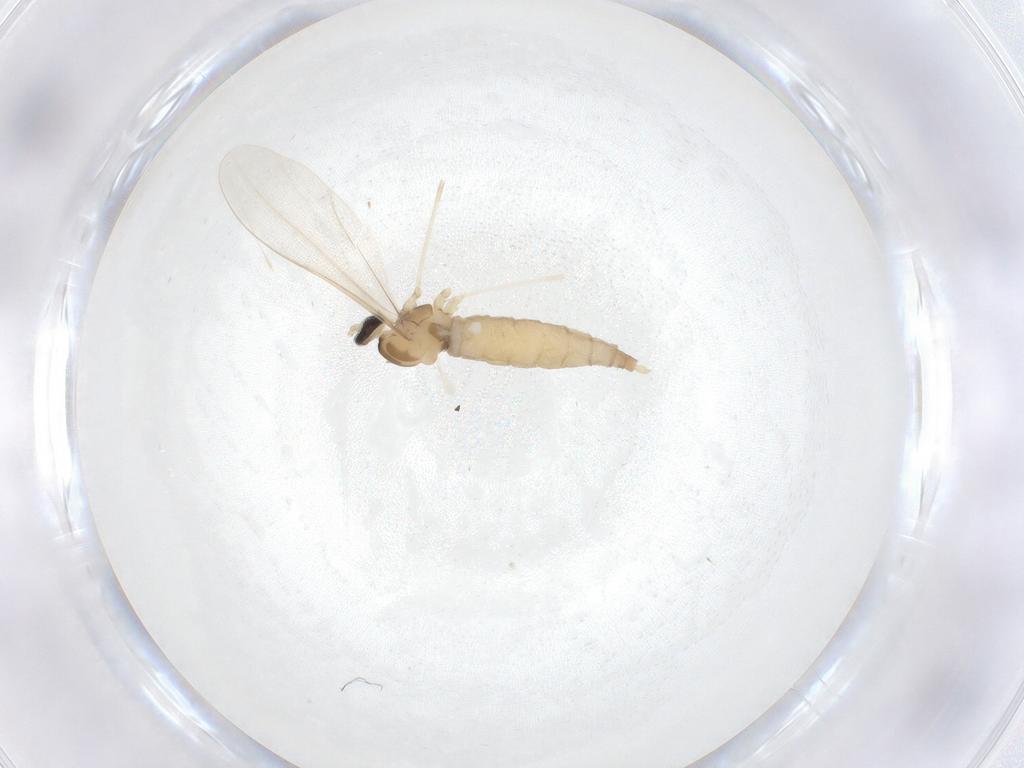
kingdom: Animalia
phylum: Arthropoda
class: Insecta
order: Diptera
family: Cecidomyiidae
